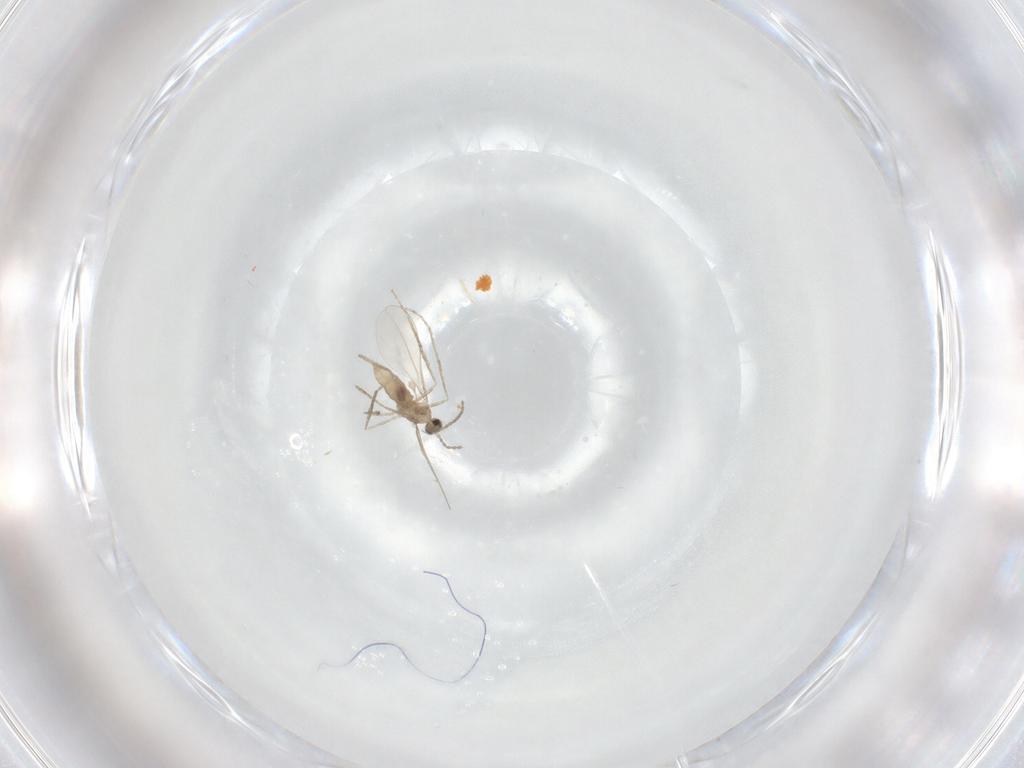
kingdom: Animalia
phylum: Arthropoda
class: Insecta
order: Diptera
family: Cecidomyiidae
